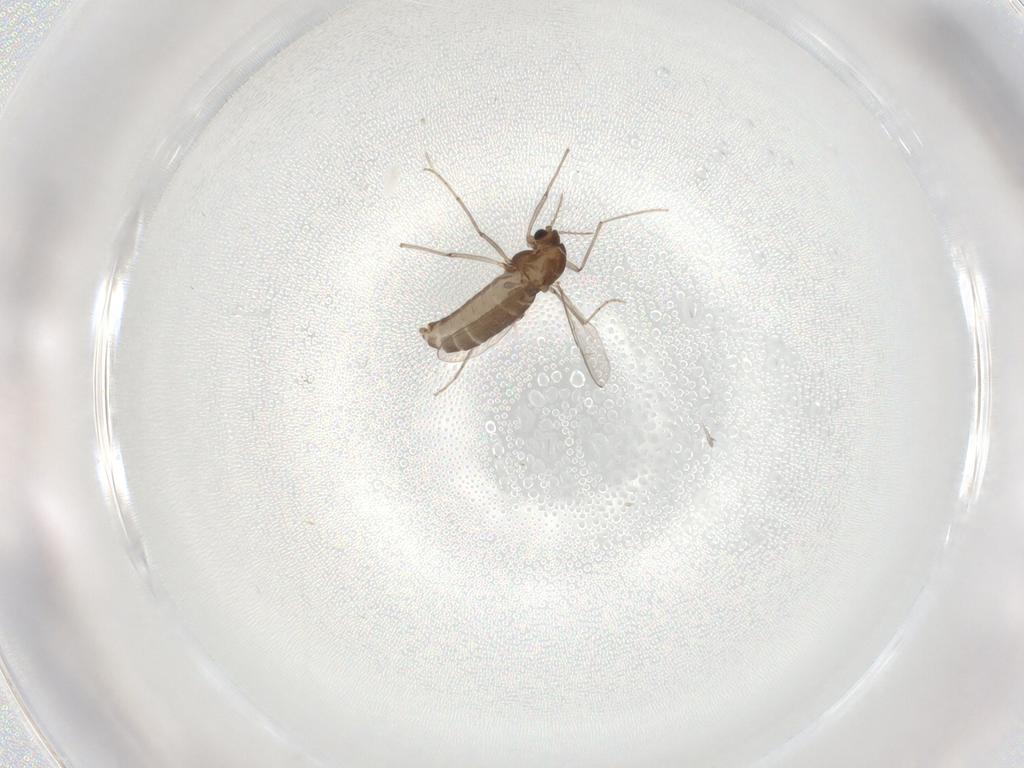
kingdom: Animalia
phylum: Arthropoda
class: Insecta
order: Diptera
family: Chironomidae
